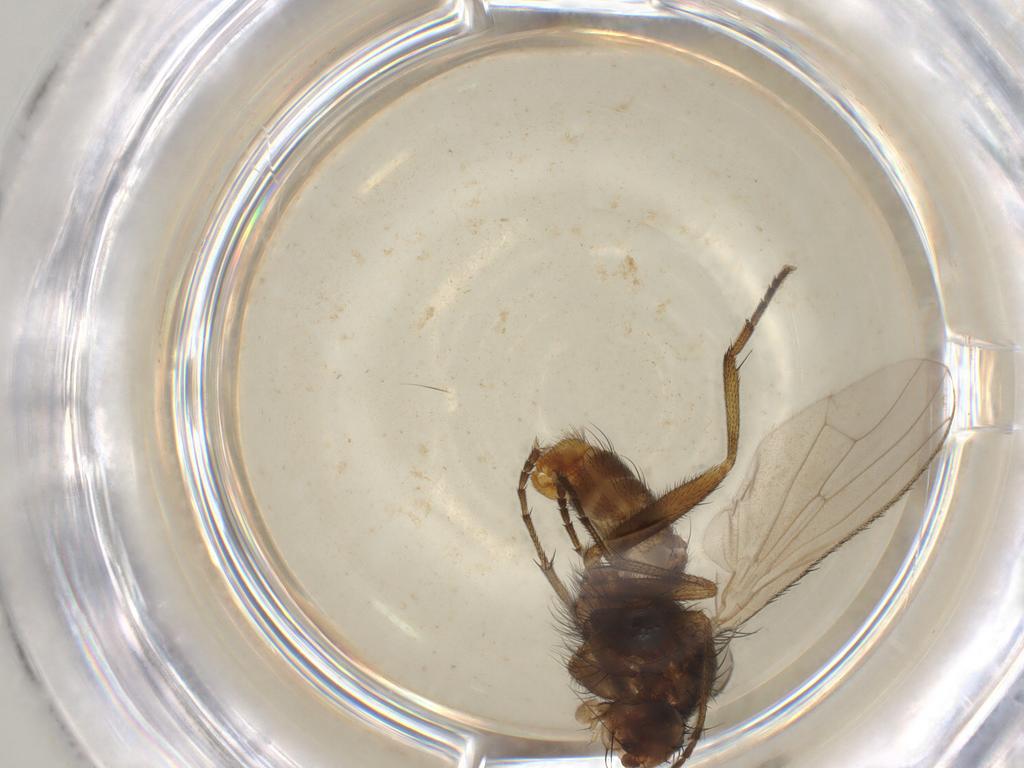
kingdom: Animalia
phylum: Arthropoda
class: Insecta
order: Diptera
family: Heleomyzidae
